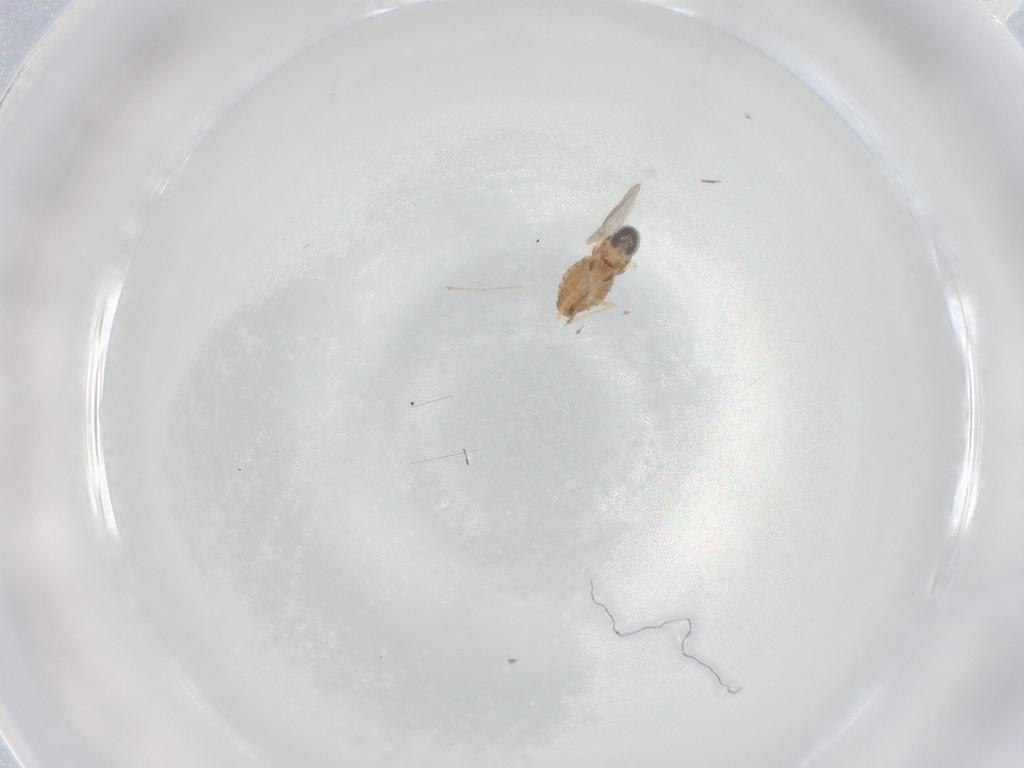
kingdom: Animalia
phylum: Arthropoda
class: Insecta
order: Diptera
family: Cecidomyiidae
